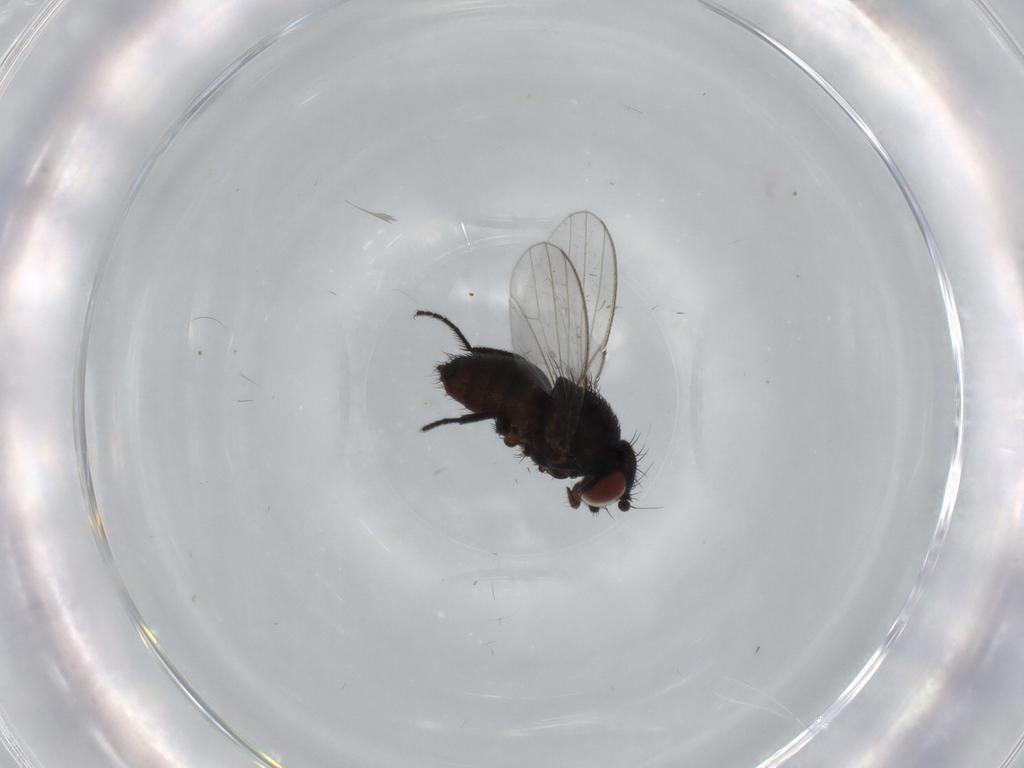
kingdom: Animalia
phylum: Arthropoda
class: Insecta
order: Diptera
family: Milichiidae
